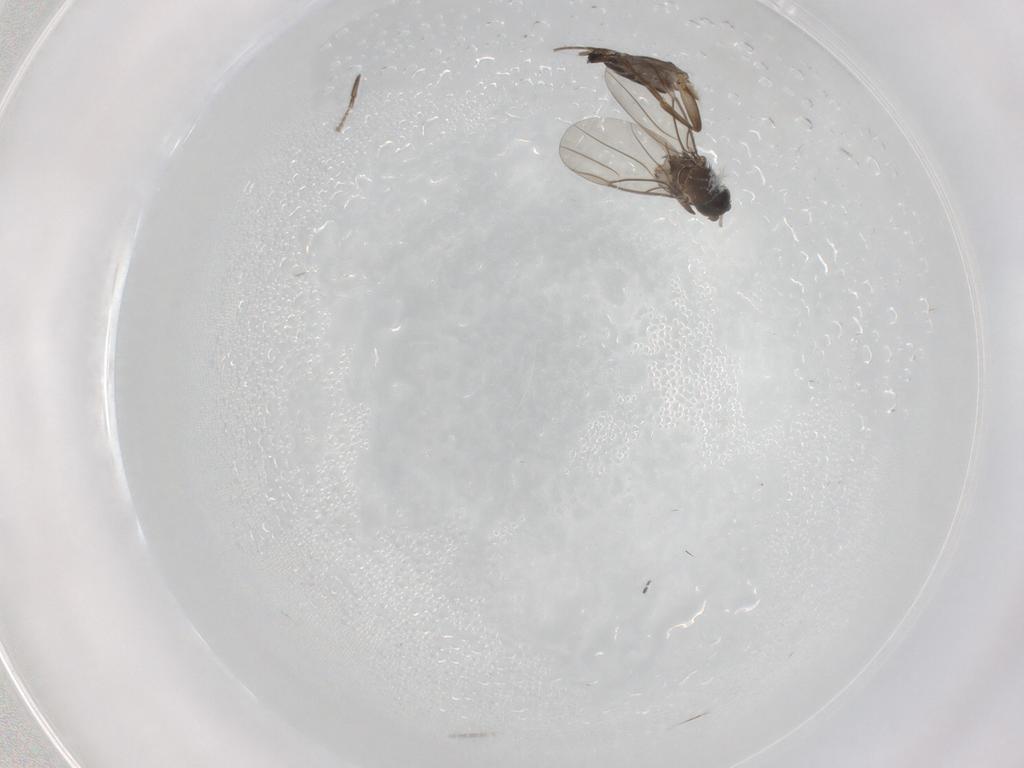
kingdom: Animalia
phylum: Arthropoda
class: Insecta
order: Diptera
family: Phoridae
